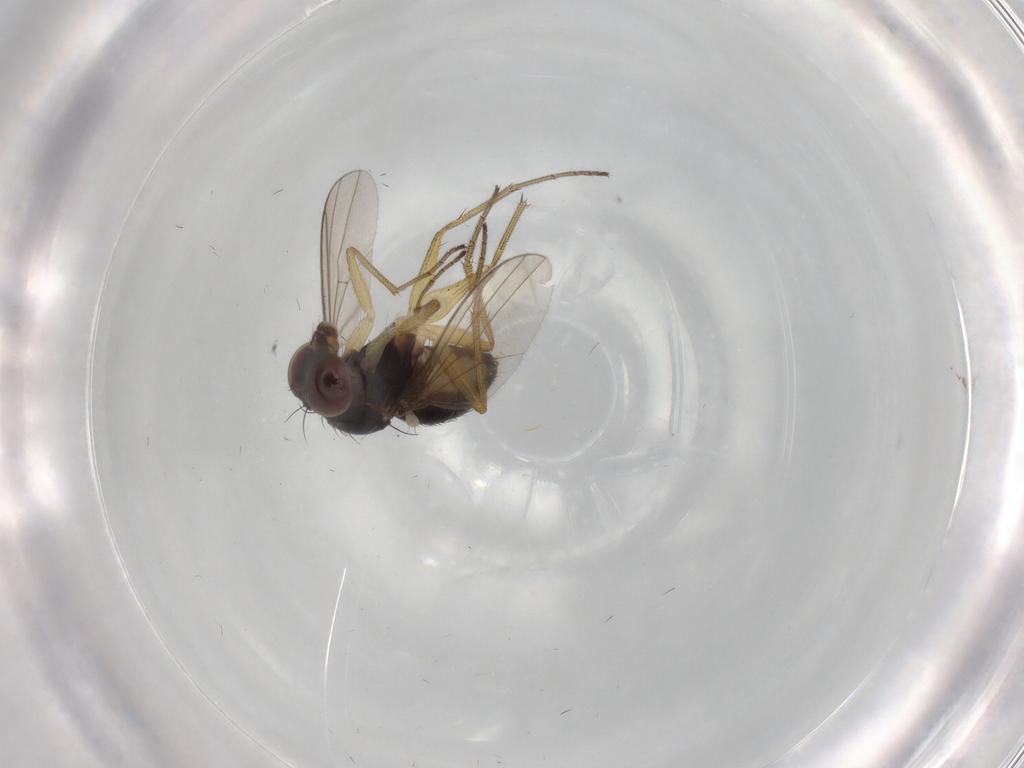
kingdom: Animalia
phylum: Arthropoda
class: Insecta
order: Diptera
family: Dolichopodidae
